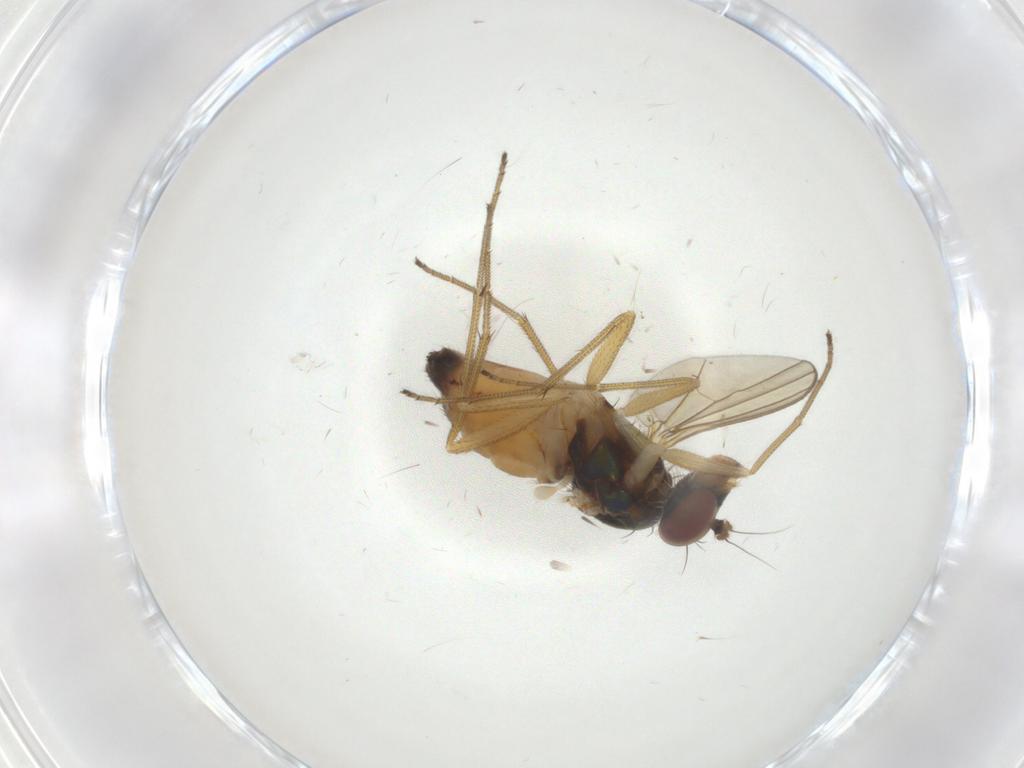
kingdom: Animalia
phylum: Arthropoda
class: Insecta
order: Diptera
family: Dolichopodidae
